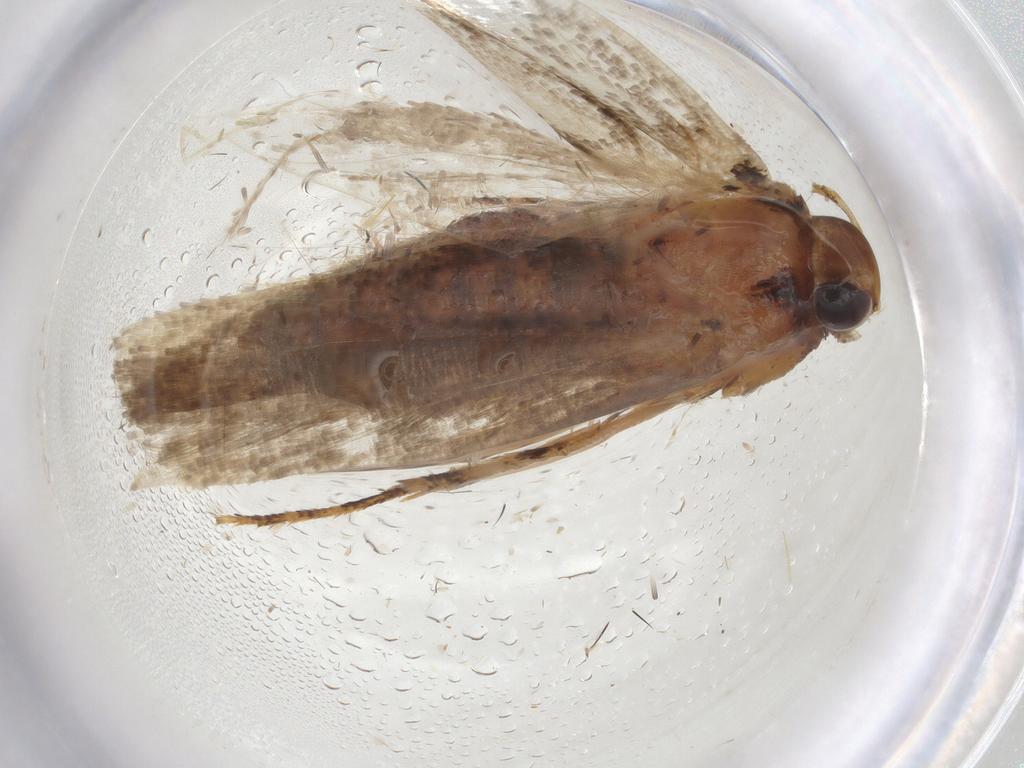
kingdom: Animalia
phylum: Arthropoda
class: Insecta
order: Lepidoptera
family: Gelechiidae
